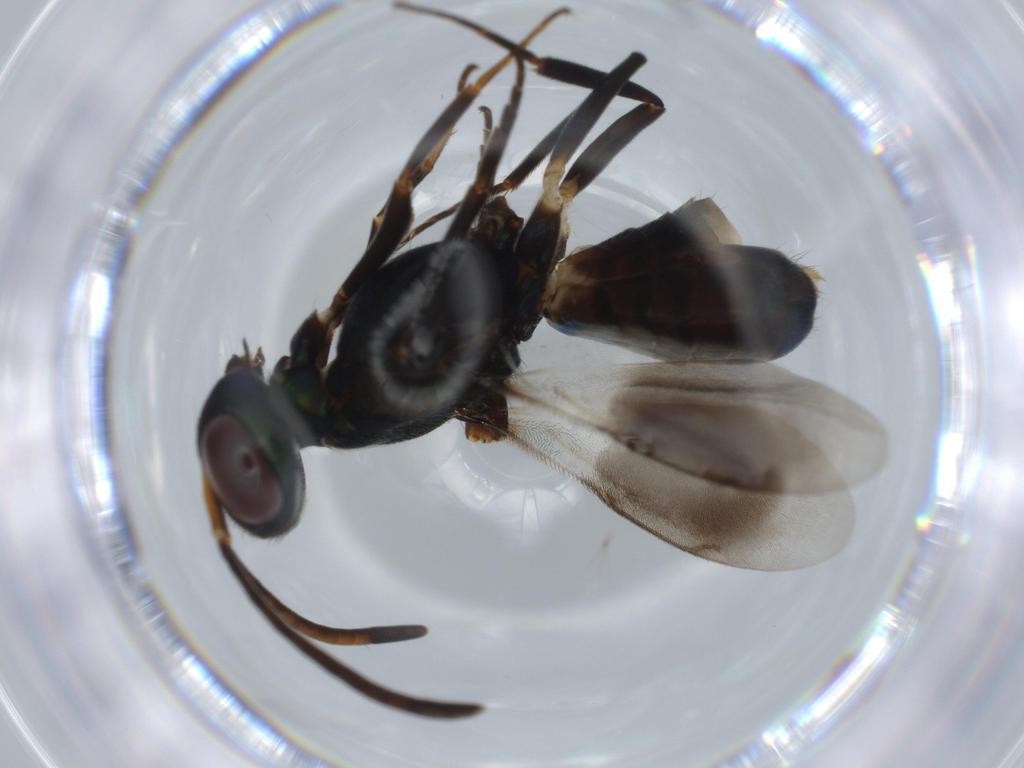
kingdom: Animalia
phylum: Arthropoda
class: Insecta
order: Hymenoptera
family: Eupelmidae
